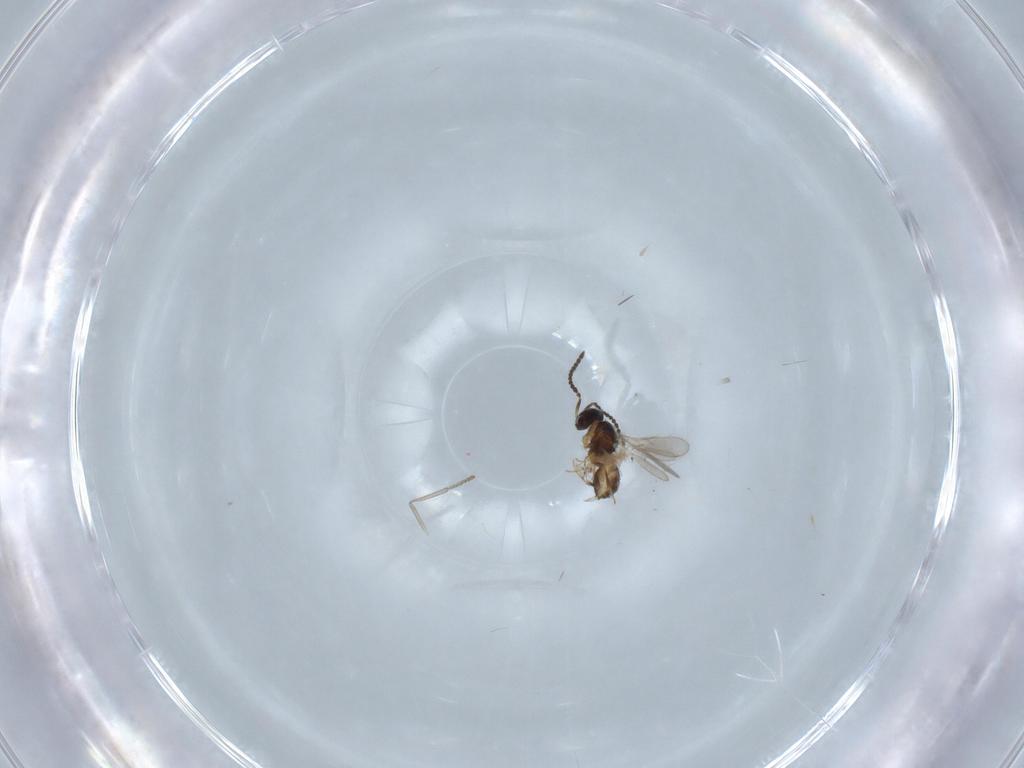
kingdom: Animalia
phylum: Arthropoda
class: Insecta
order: Hymenoptera
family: Scelionidae
